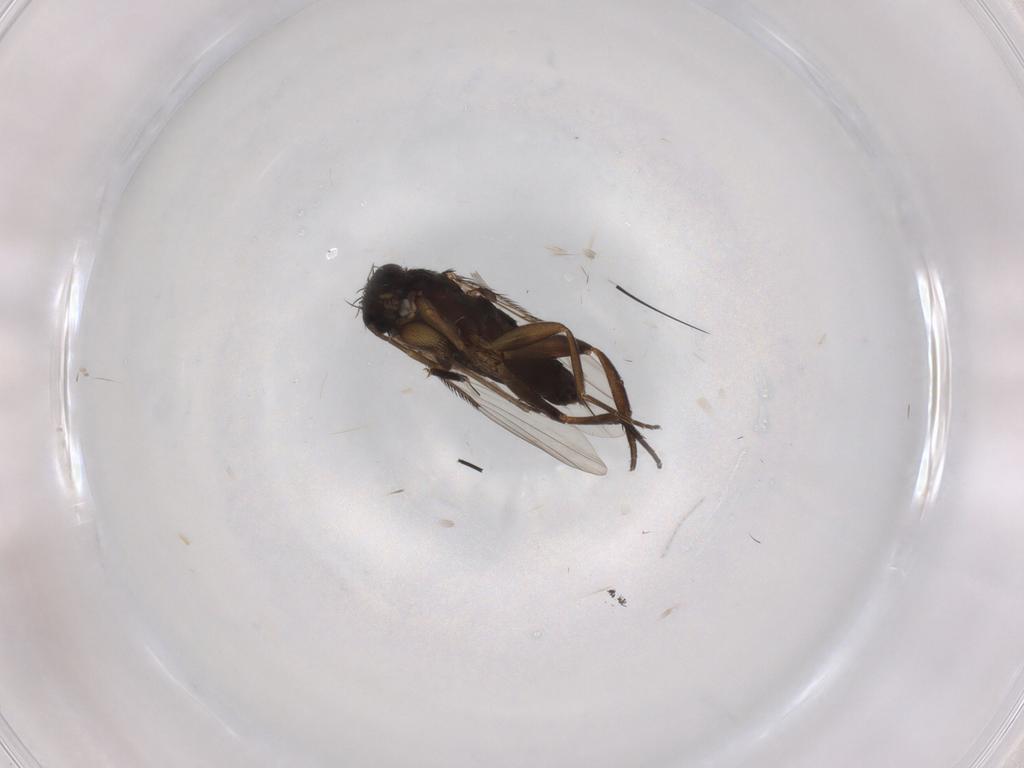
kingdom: Animalia
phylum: Arthropoda
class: Insecta
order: Diptera
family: Phoridae
